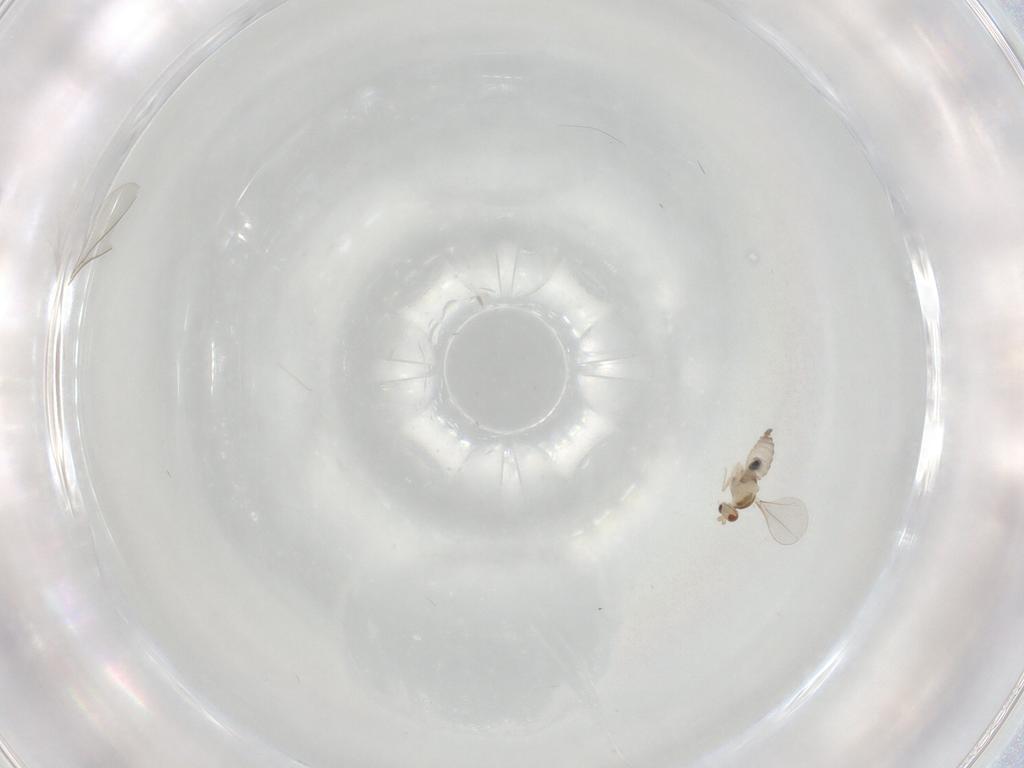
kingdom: Animalia
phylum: Arthropoda
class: Insecta
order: Diptera
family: Cecidomyiidae
